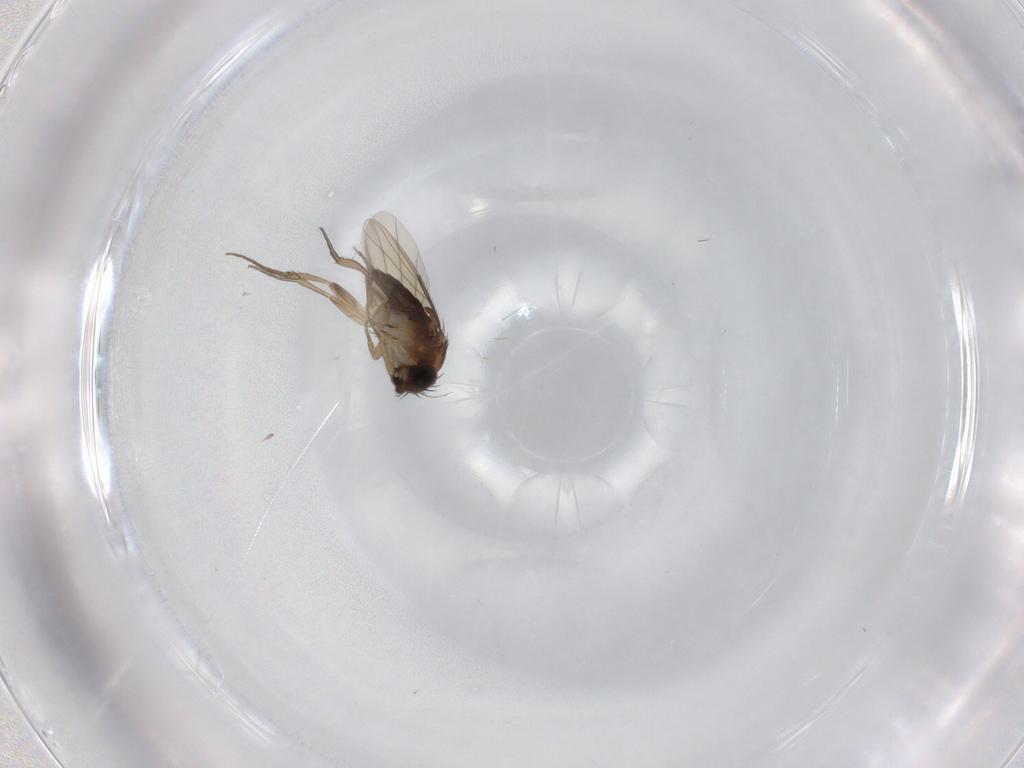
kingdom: Animalia
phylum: Arthropoda
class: Insecta
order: Diptera
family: Phoridae
